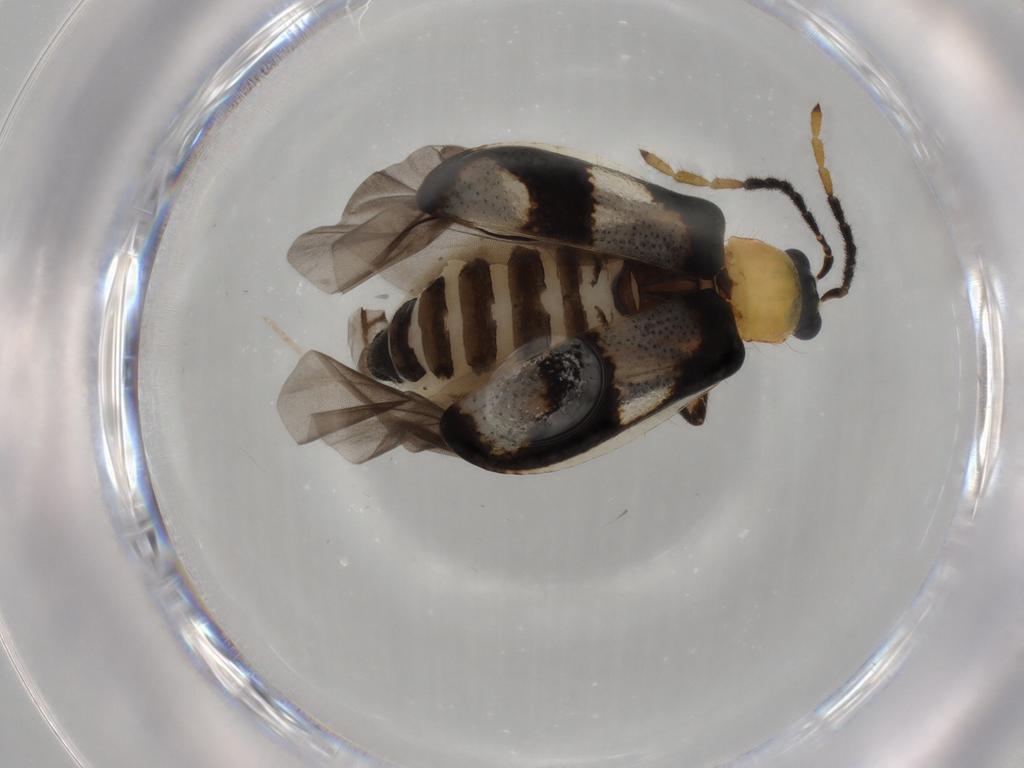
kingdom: Animalia
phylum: Arthropoda
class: Insecta
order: Coleoptera
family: Chrysomelidae
